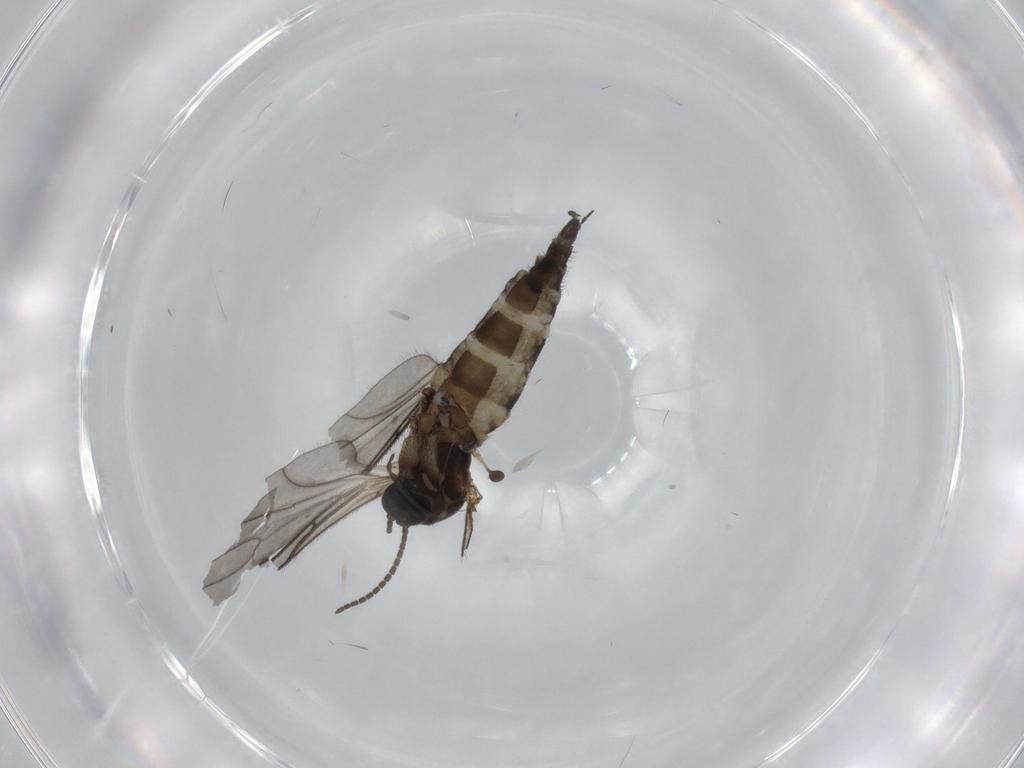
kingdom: Animalia
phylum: Arthropoda
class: Insecta
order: Diptera
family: Sciaridae
